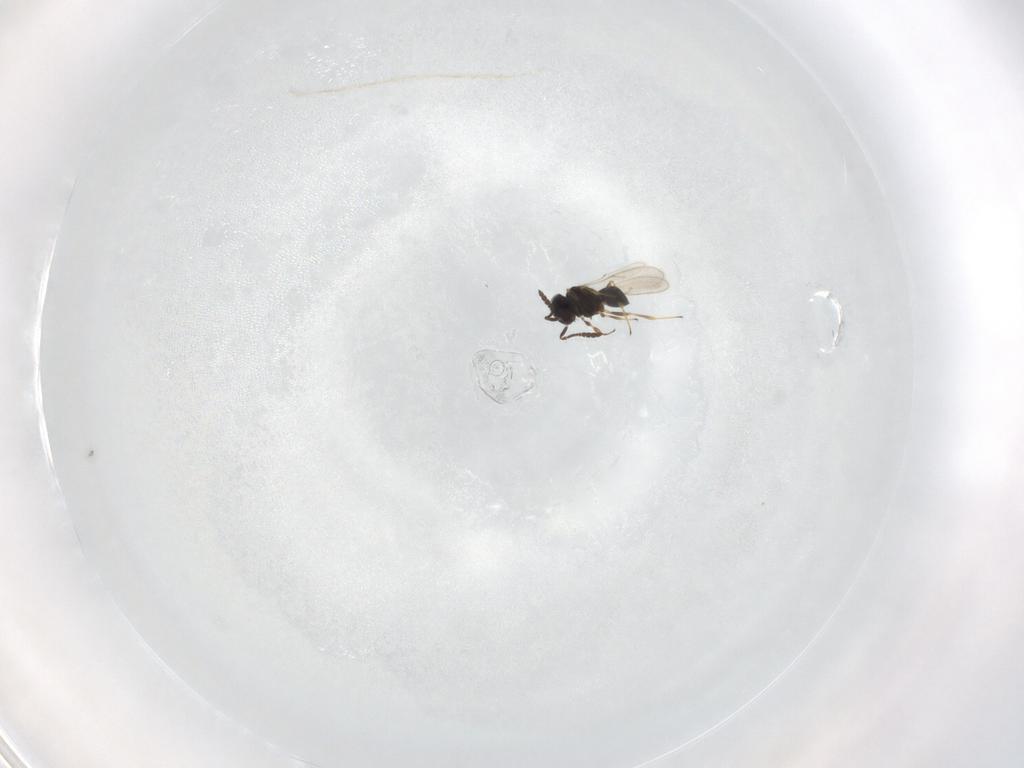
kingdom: Animalia
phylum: Arthropoda
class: Insecta
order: Hymenoptera
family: Scelionidae
